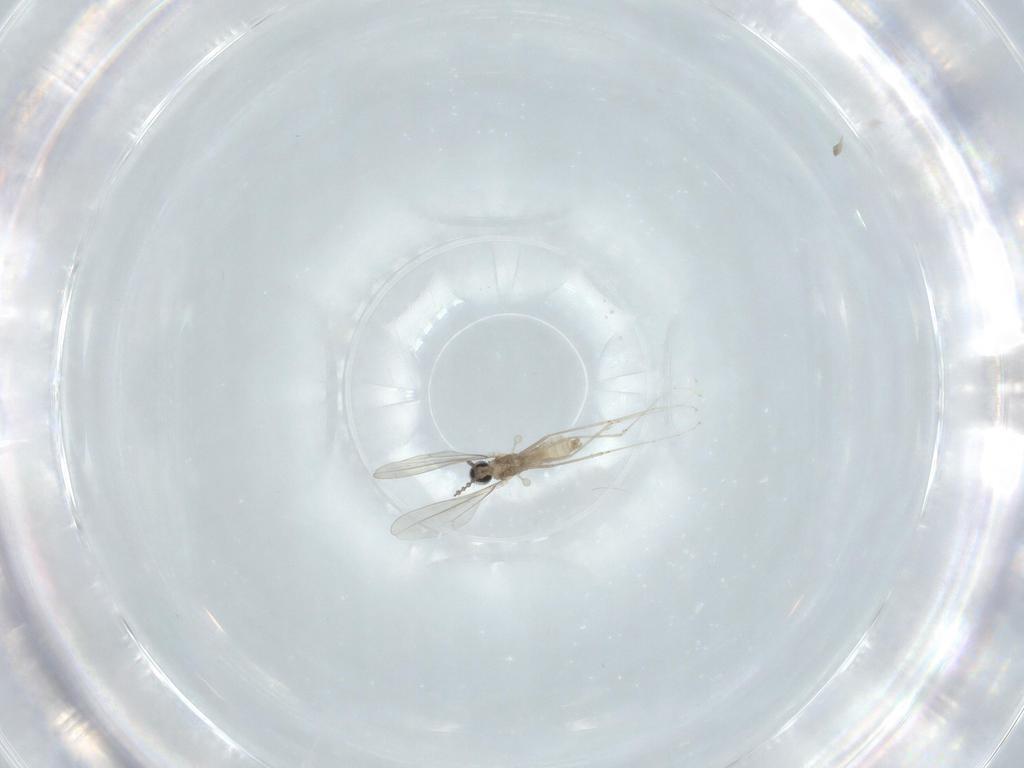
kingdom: Animalia
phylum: Arthropoda
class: Insecta
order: Diptera
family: Cecidomyiidae
